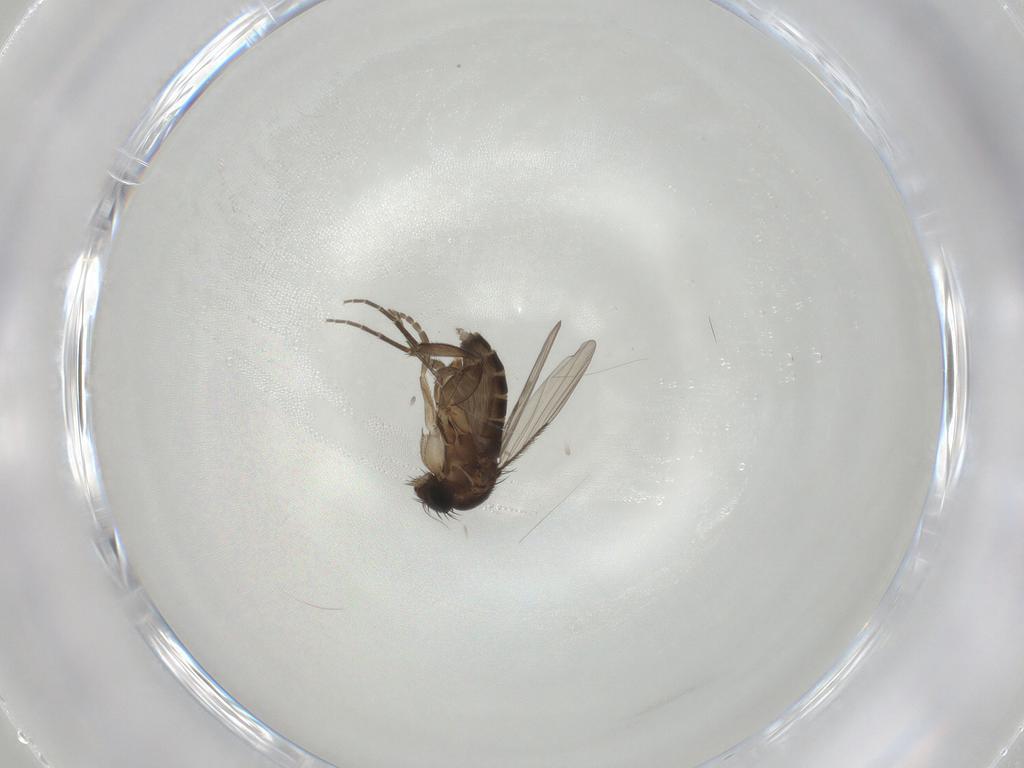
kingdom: Animalia
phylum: Arthropoda
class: Insecta
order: Diptera
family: Phoridae
